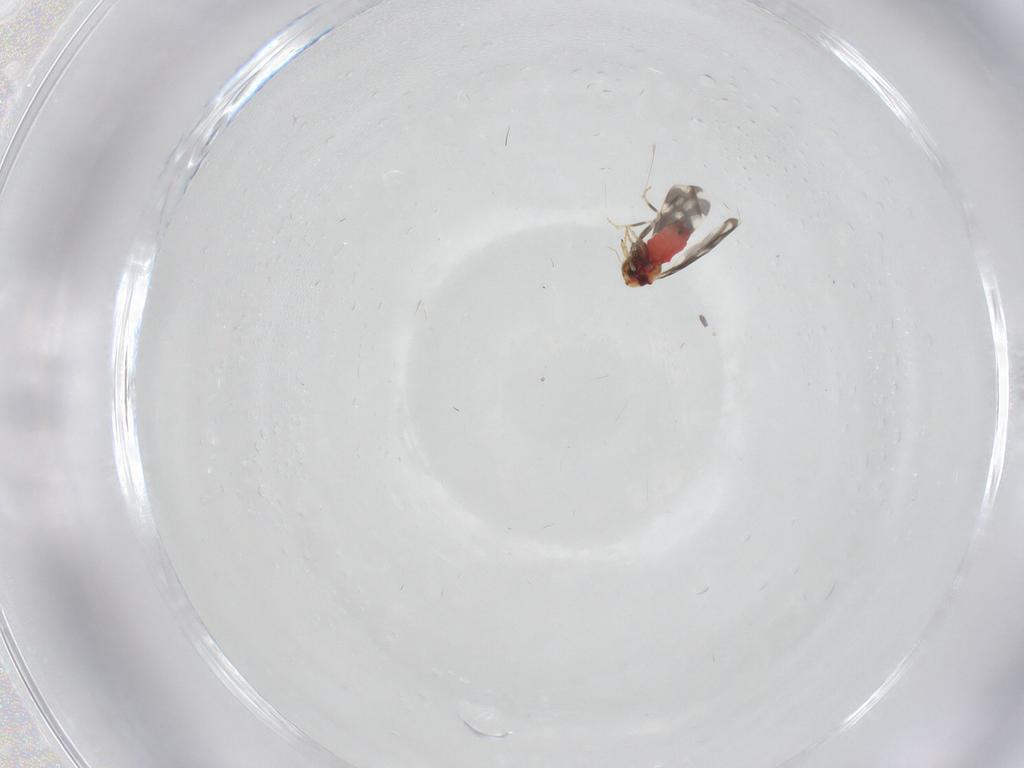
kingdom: Animalia
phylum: Arthropoda
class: Insecta
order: Hemiptera
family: Aleyrodidae
